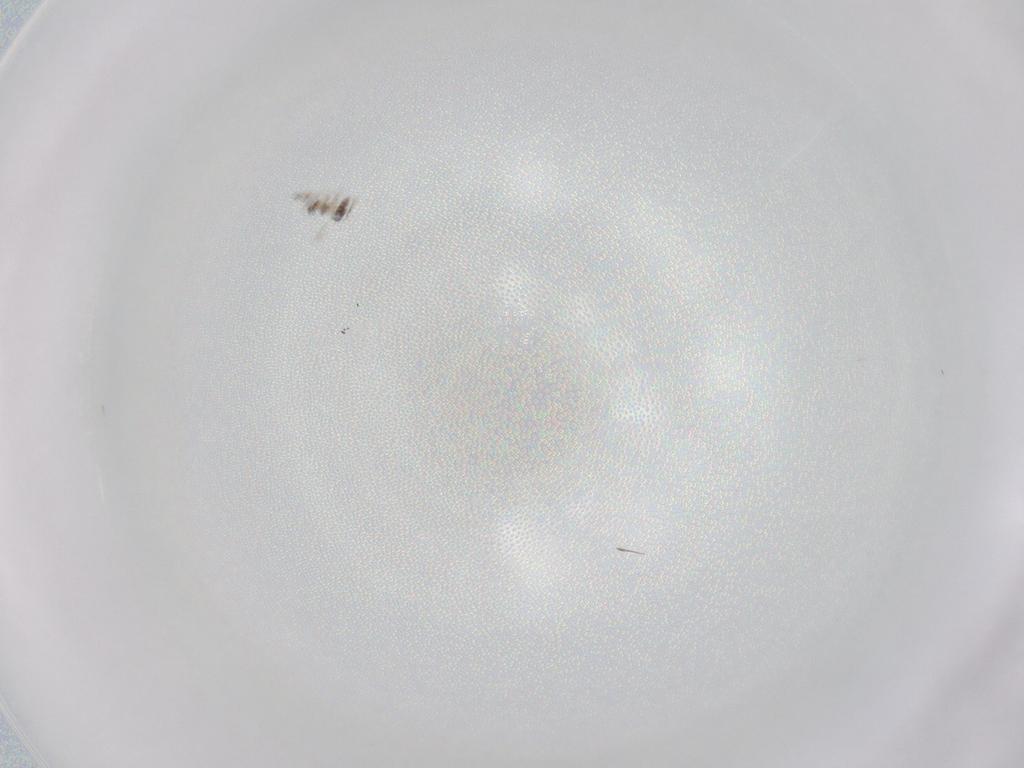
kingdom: Animalia
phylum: Arthropoda
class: Insecta
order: Hymenoptera
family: Mymaridae
